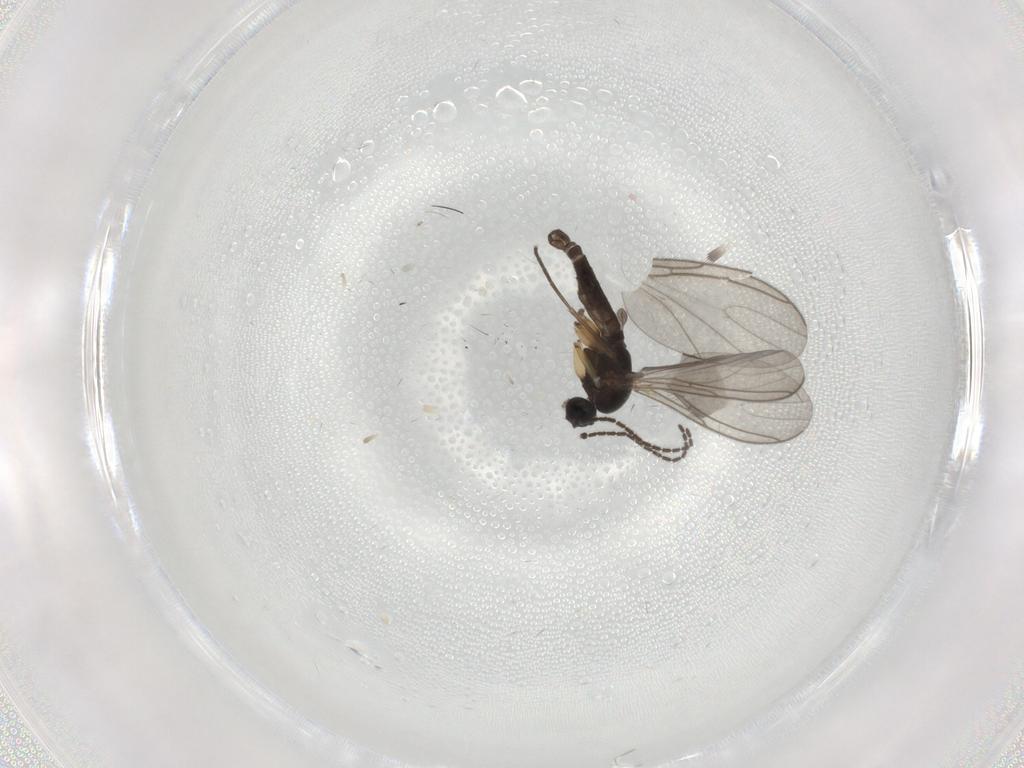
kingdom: Animalia
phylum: Arthropoda
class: Insecta
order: Diptera
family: Sciaridae
